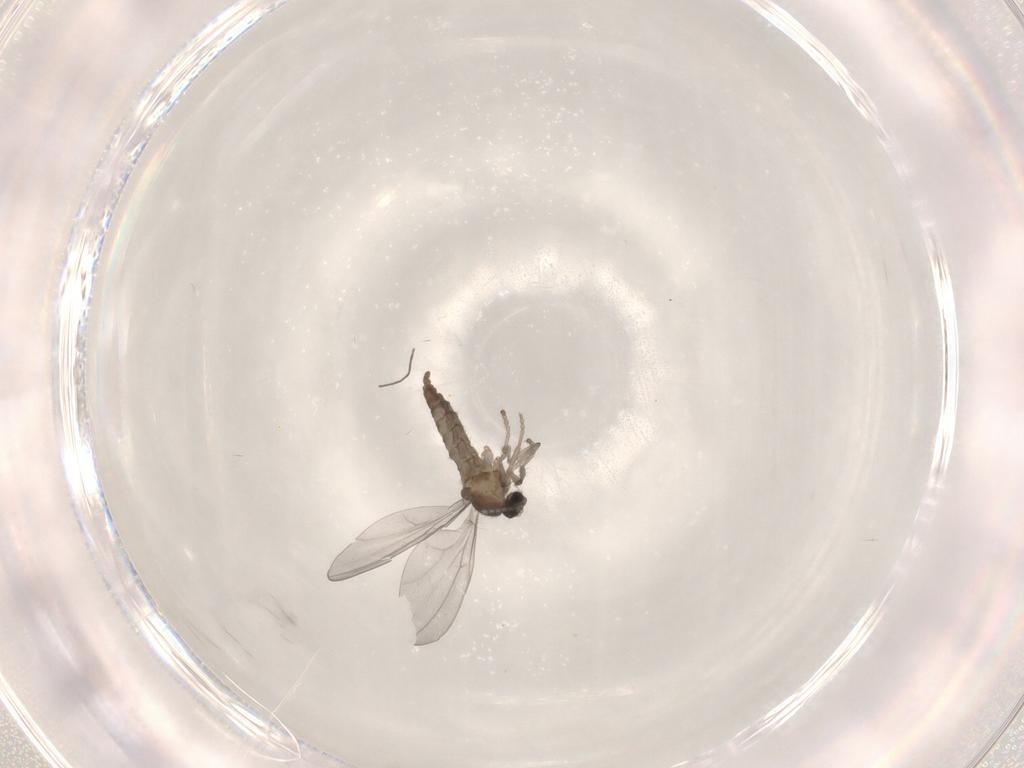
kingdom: Animalia
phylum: Arthropoda
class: Insecta
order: Diptera
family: Cecidomyiidae
